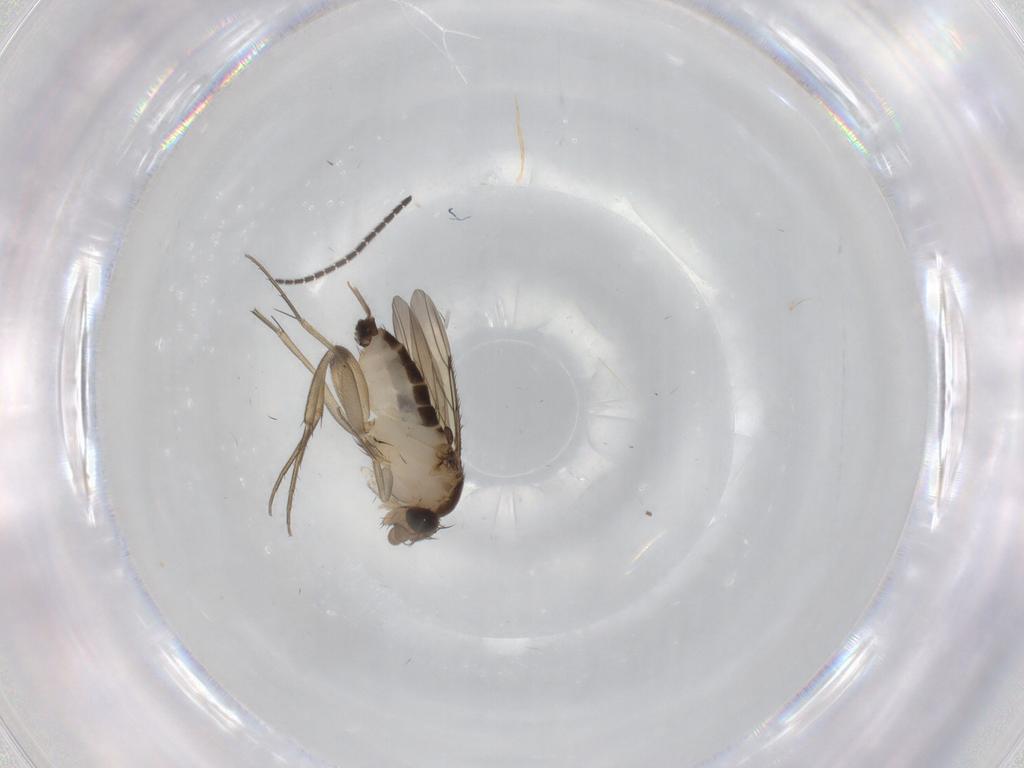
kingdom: Animalia
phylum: Arthropoda
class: Insecta
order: Diptera
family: Phoridae
